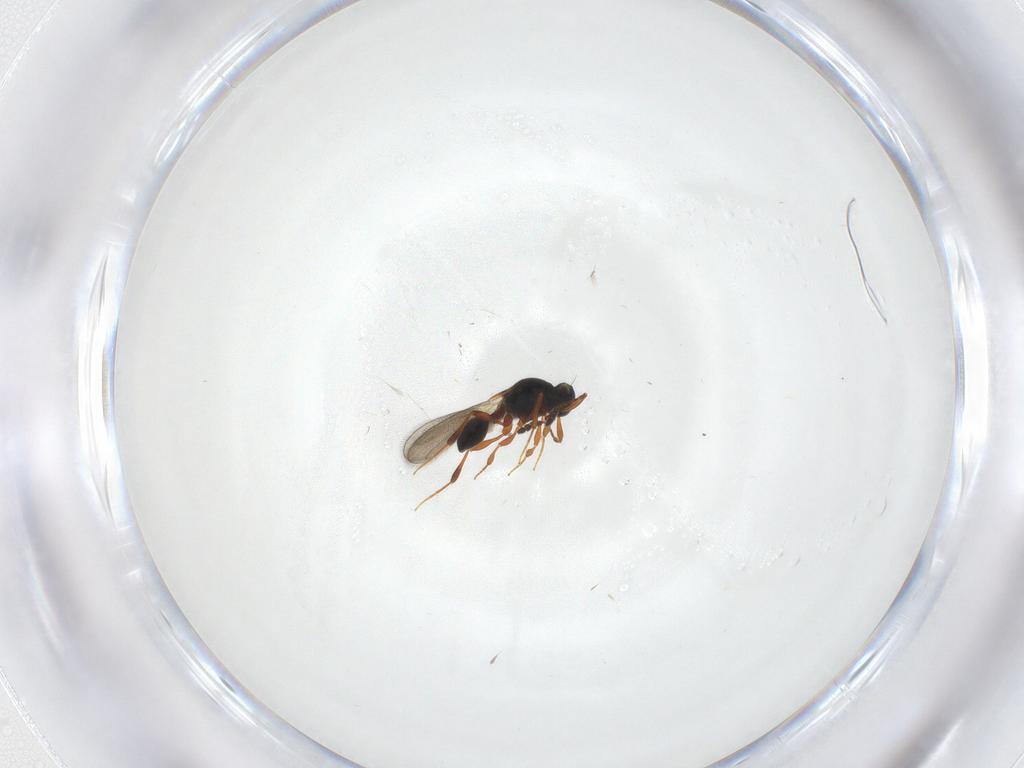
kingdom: Animalia
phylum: Arthropoda
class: Insecta
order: Hymenoptera
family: Platygastridae
